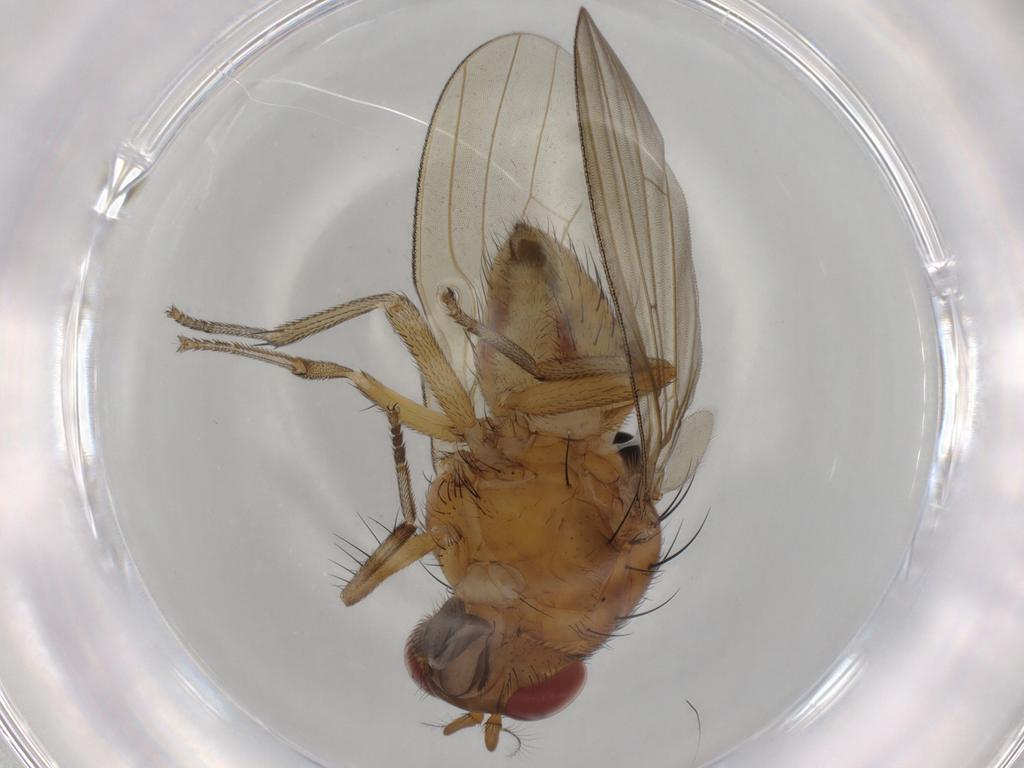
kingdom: Animalia
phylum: Arthropoda
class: Insecta
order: Diptera
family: Lauxaniidae
